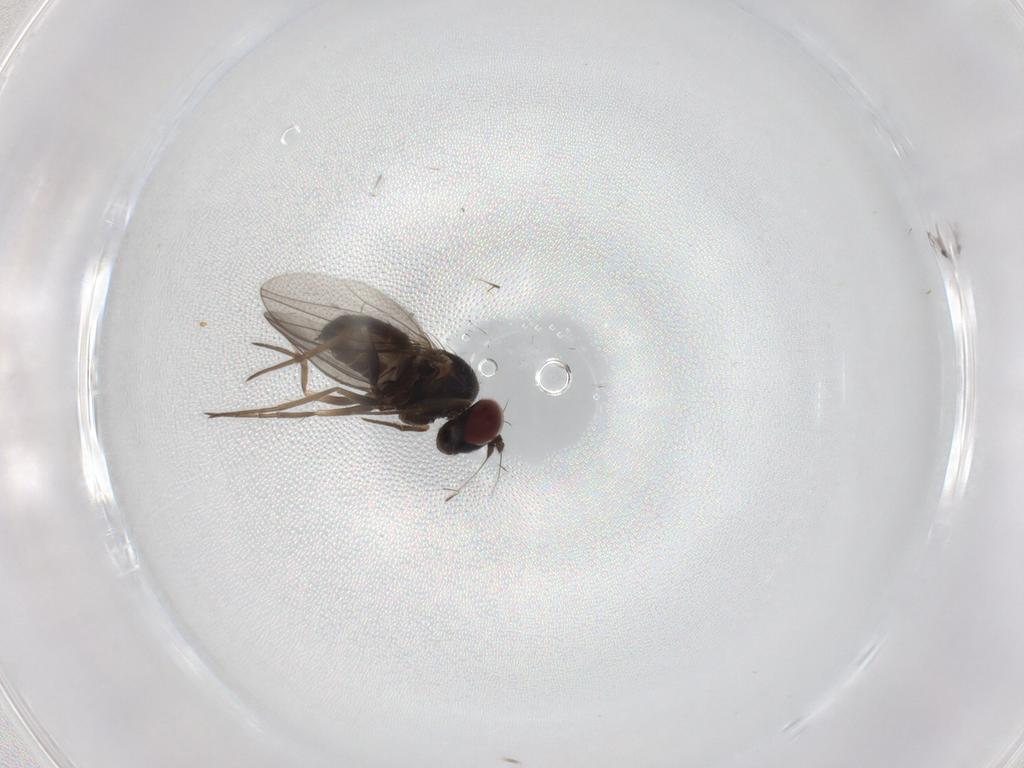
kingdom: Animalia
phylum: Arthropoda
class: Insecta
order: Diptera
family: Dolichopodidae
